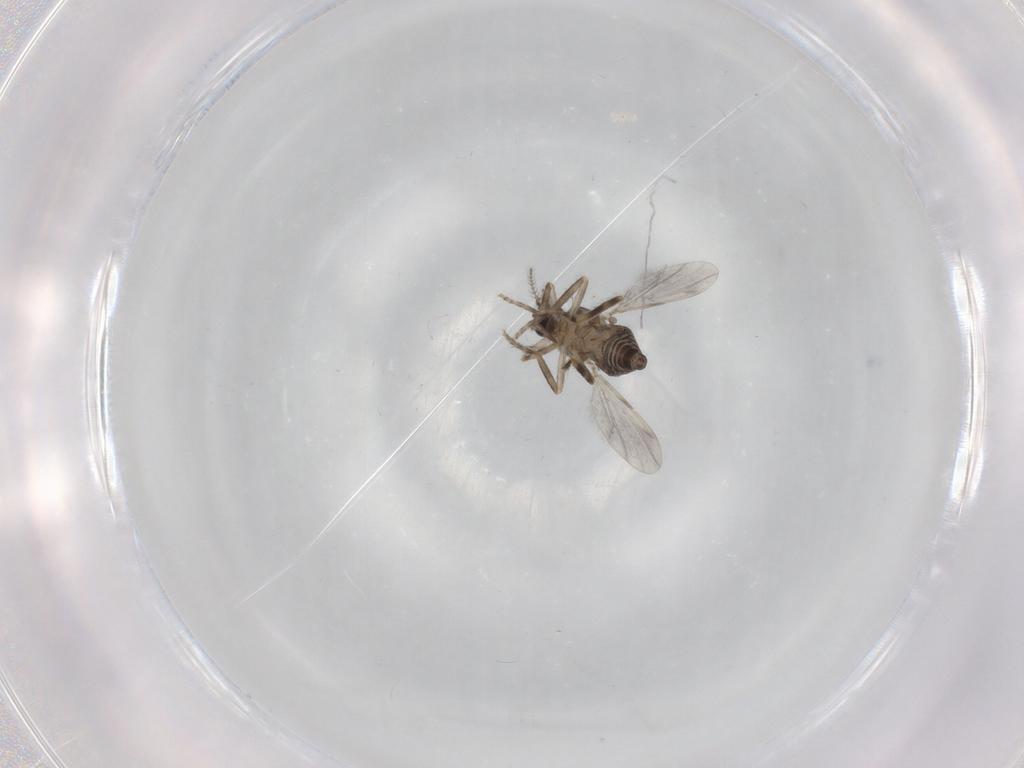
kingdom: Animalia
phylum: Arthropoda
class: Insecta
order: Diptera
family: Ceratopogonidae
